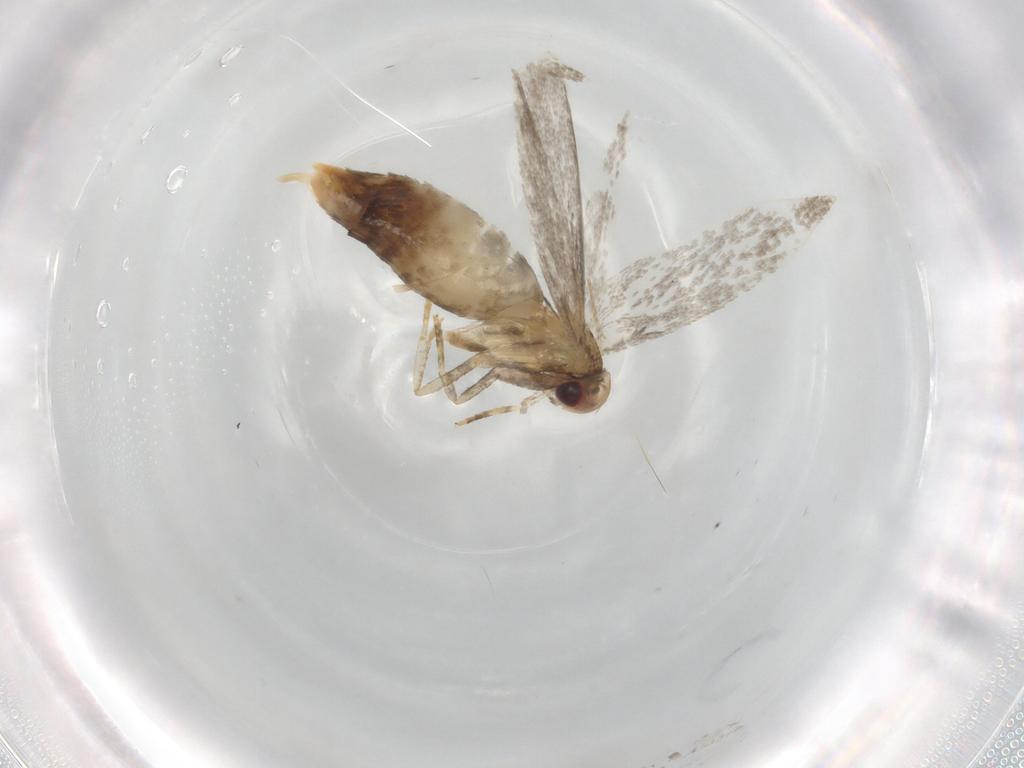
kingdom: Animalia
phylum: Arthropoda
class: Insecta
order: Lepidoptera
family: Cosmopterigidae
